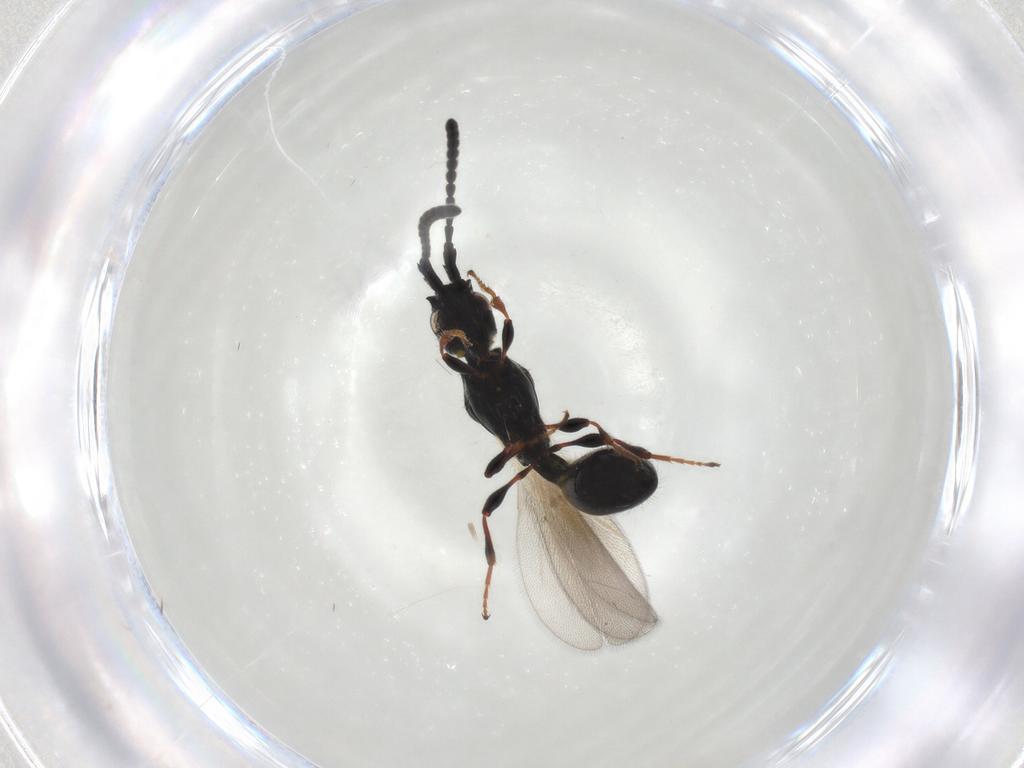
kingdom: Animalia
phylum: Arthropoda
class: Insecta
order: Hymenoptera
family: Diapriidae
